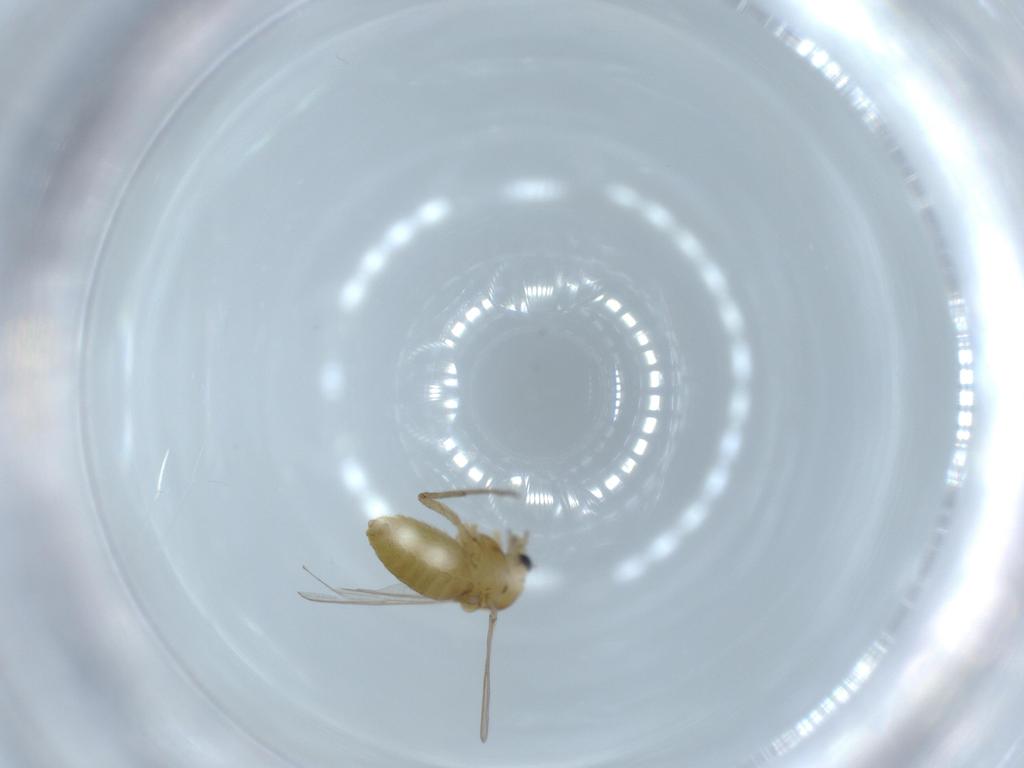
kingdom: Animalia
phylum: Arthropoda
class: Insecta
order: Diptera
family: Chironomidae
